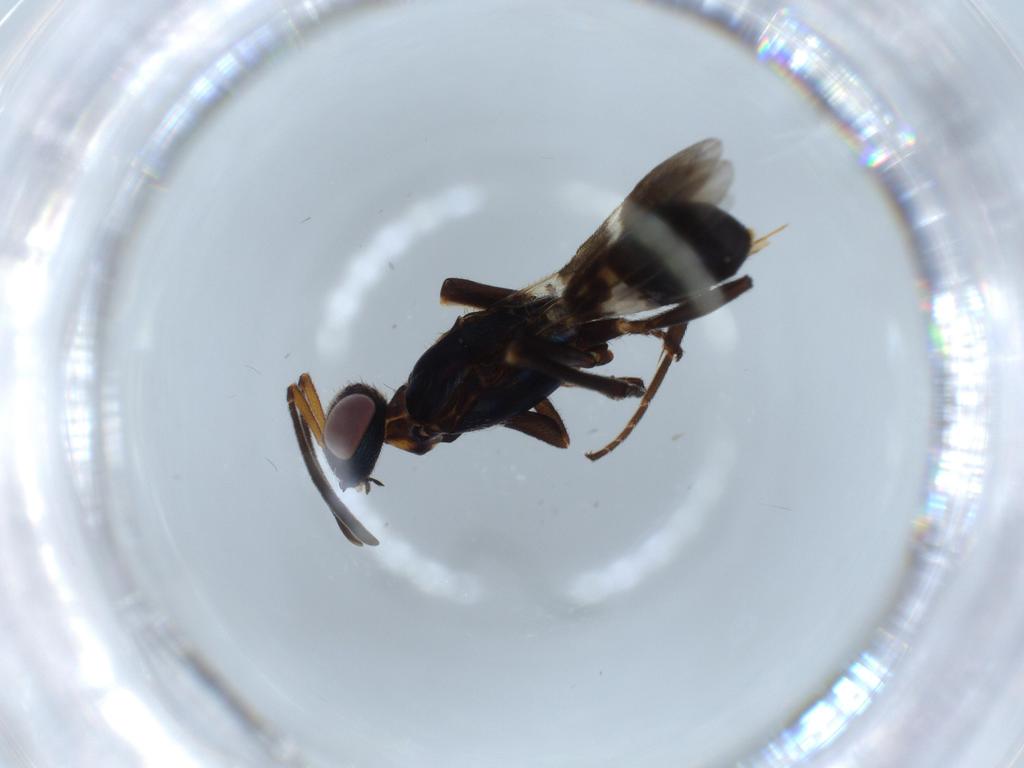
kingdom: Animalia
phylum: Arthropoda
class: Insecta
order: Hymenoptera
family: Eupelmidae
